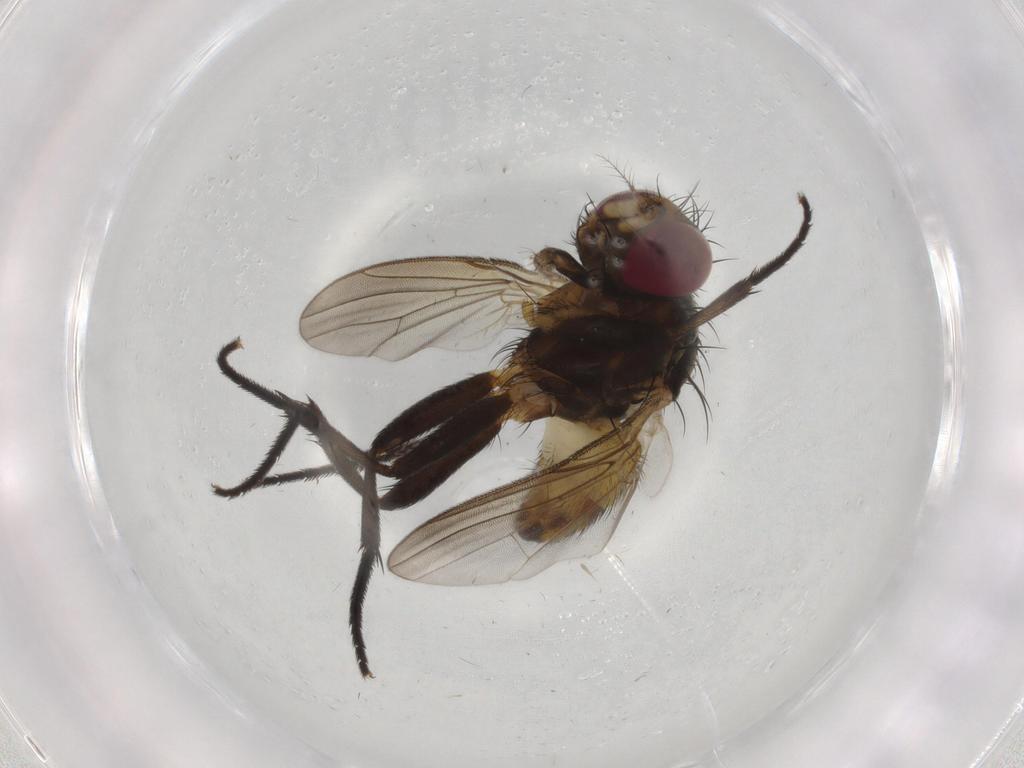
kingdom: Animalia
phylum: Arthropoda
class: Insecta
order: Diptera
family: Anthomyiidae
